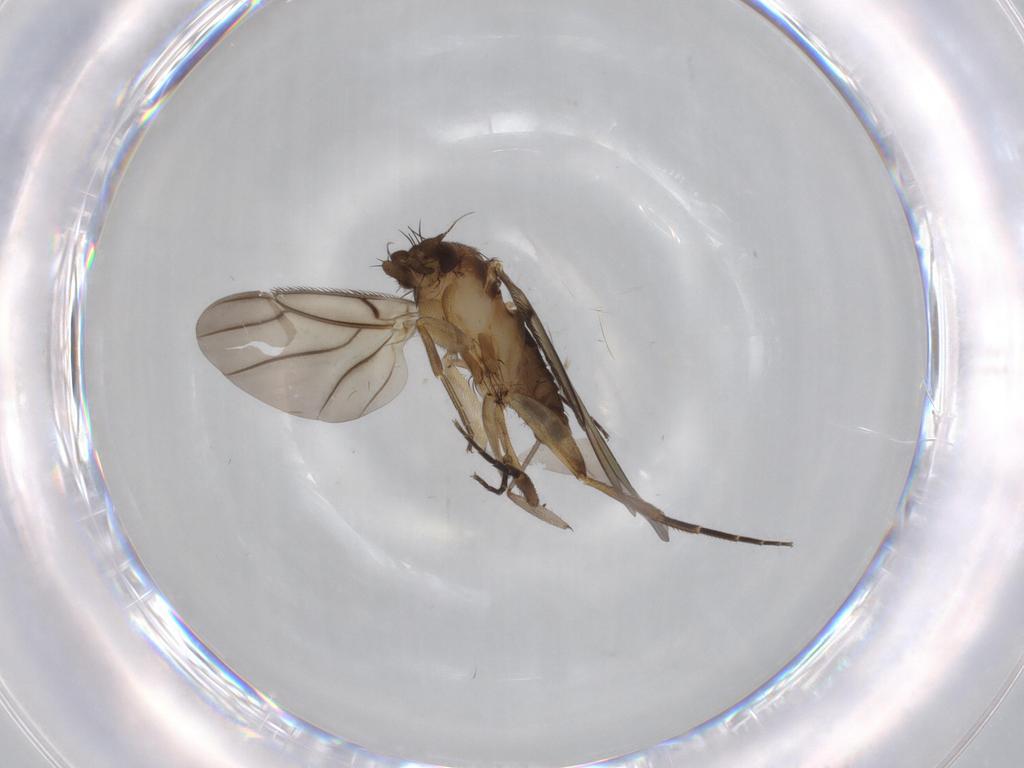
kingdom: Animalia
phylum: Arthropoda
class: Insecta
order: Diptera
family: Phoridae
